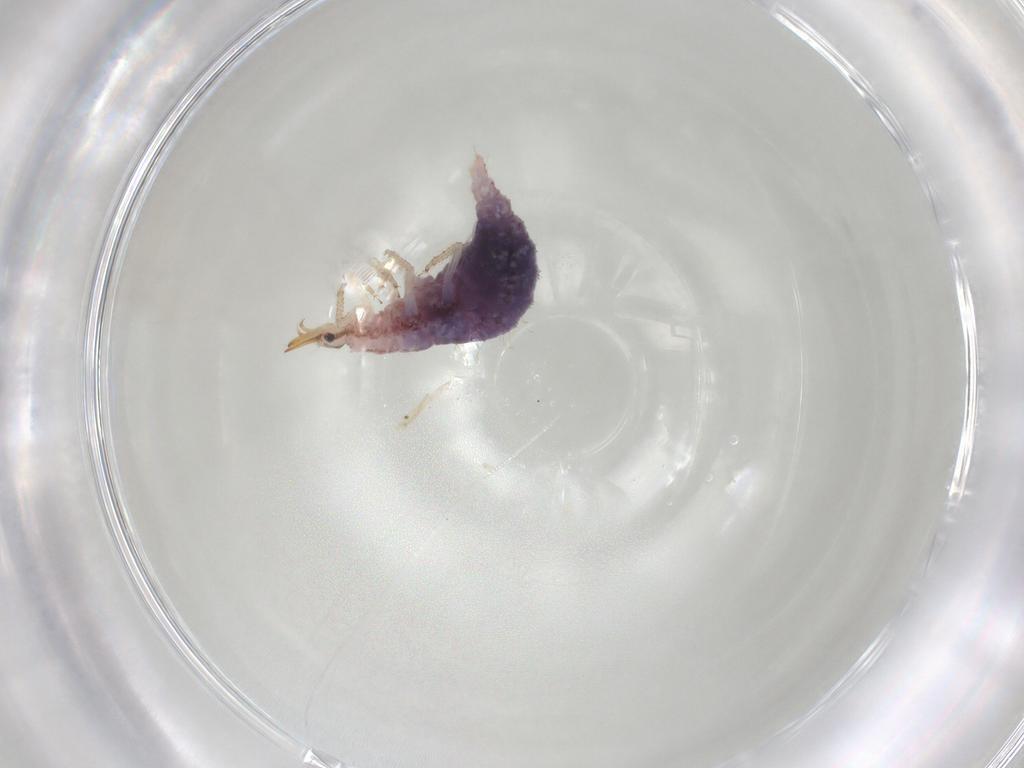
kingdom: Animalia
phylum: Arthropoda
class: Insecta
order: Neuroptera
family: Chrysopidae
